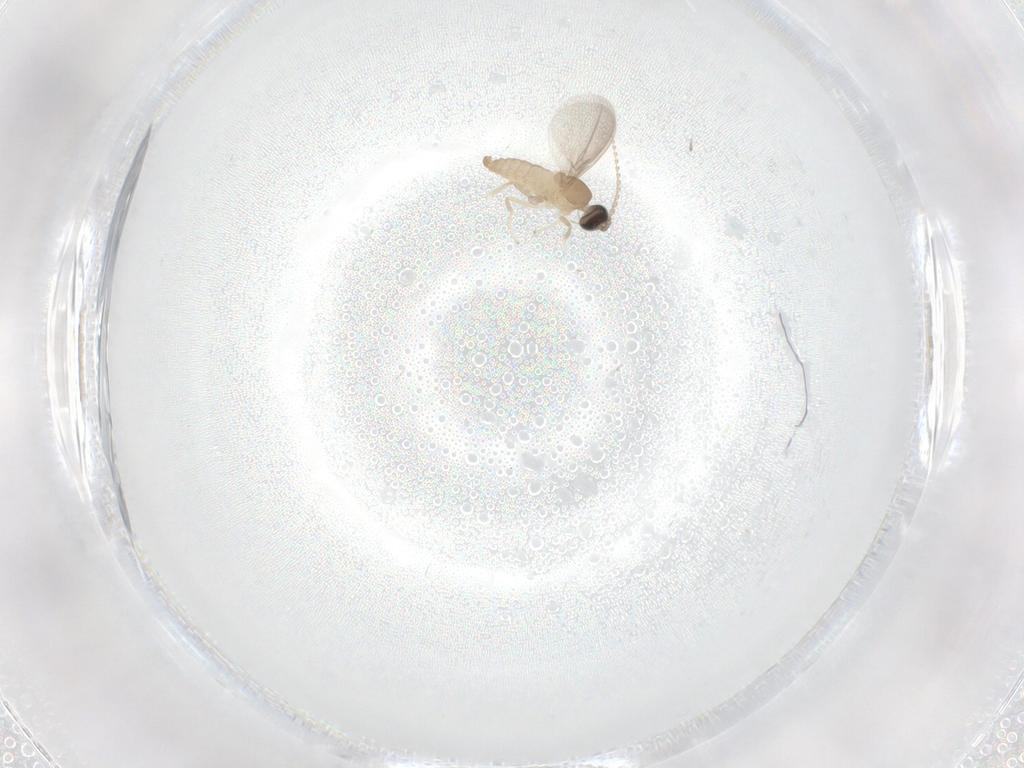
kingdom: Animalia
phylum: Arthropoda
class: Insecta
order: Diptera
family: Cecidomyiidae
